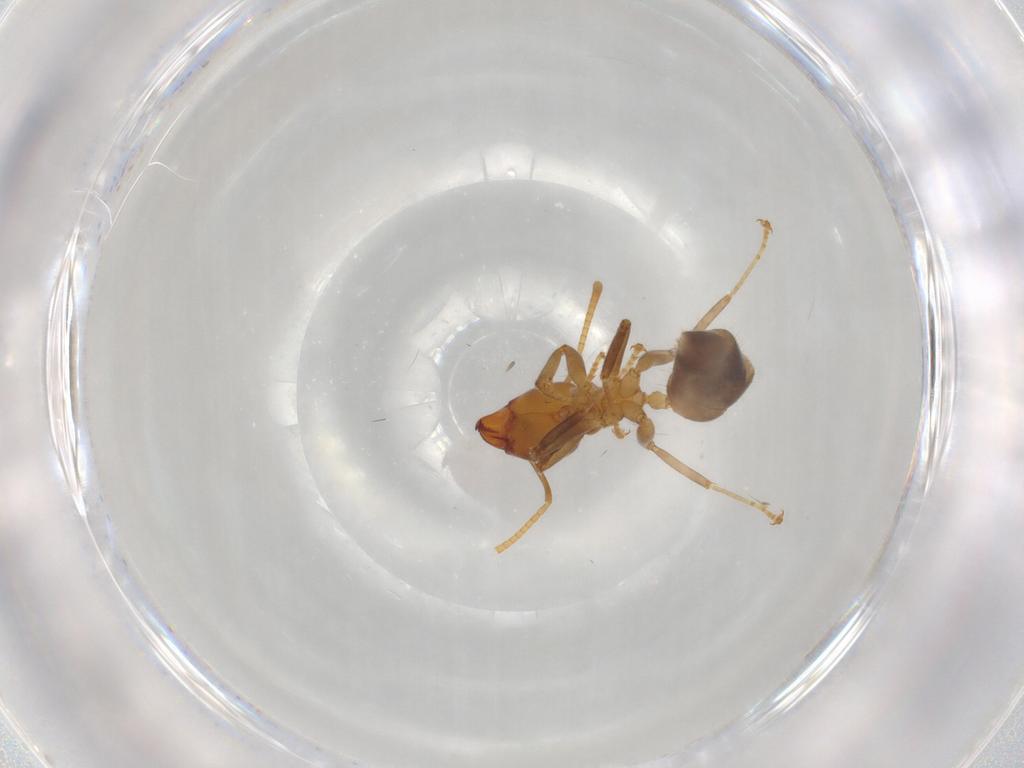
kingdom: Animalia
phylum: Arthropoda
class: Insecta
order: Hymenoptera
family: Formicidae
